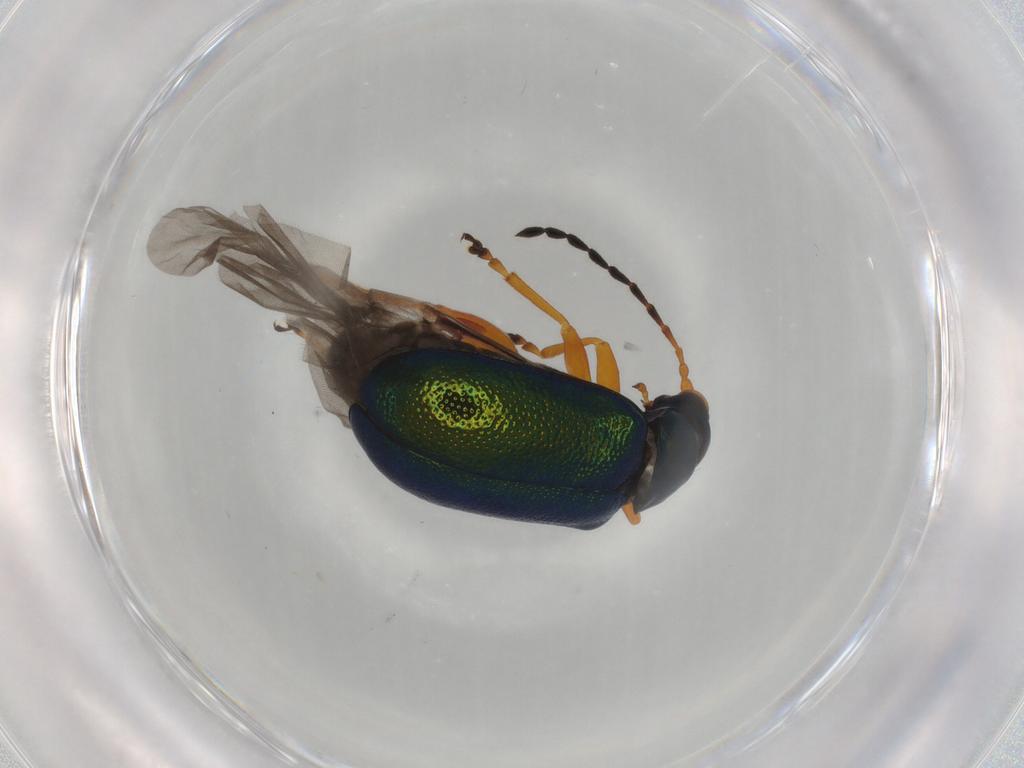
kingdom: Animalia
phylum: Arthropoda
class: Insecta
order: Coleoptera
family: Chrysomelidae
